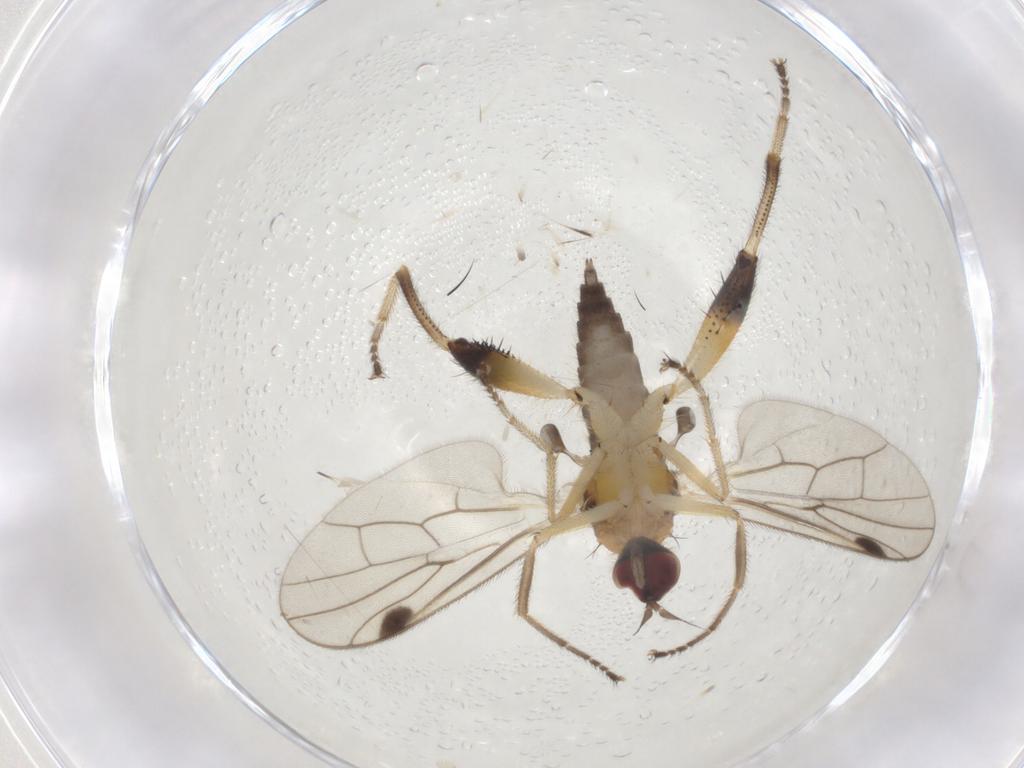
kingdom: Animalia
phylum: Arthropoda
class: Insecta
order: Diptera
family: Hybotidae
